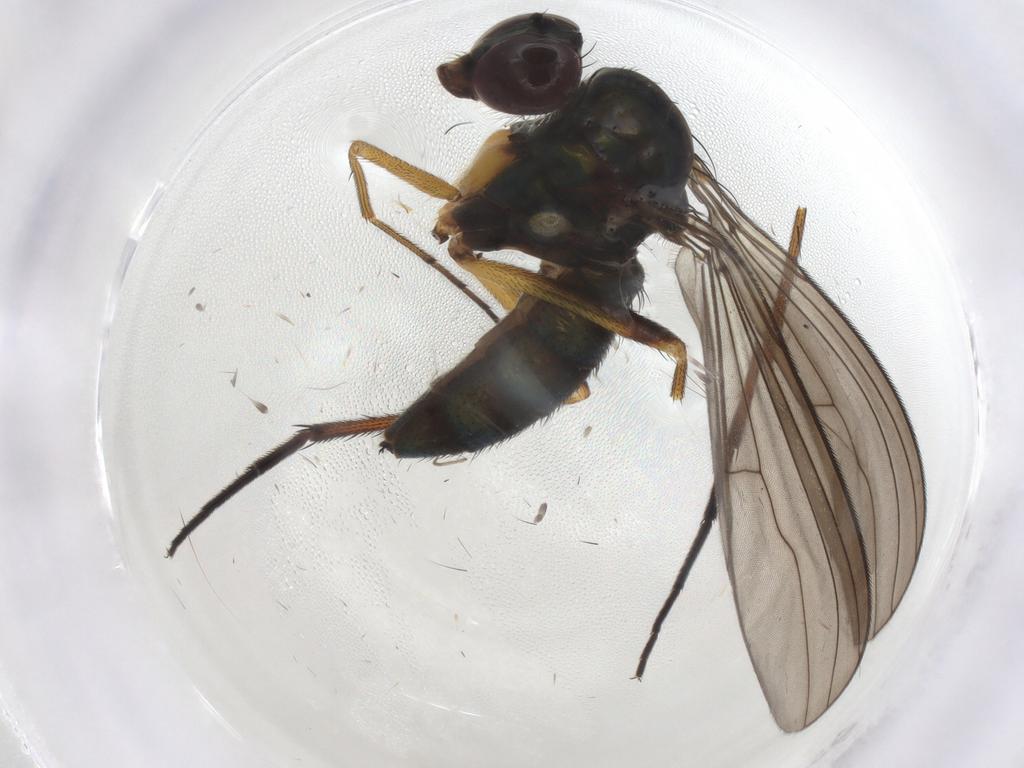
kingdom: Animalia
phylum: Arthropoda
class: Insecta
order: Diptera
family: Dolichopodidae
